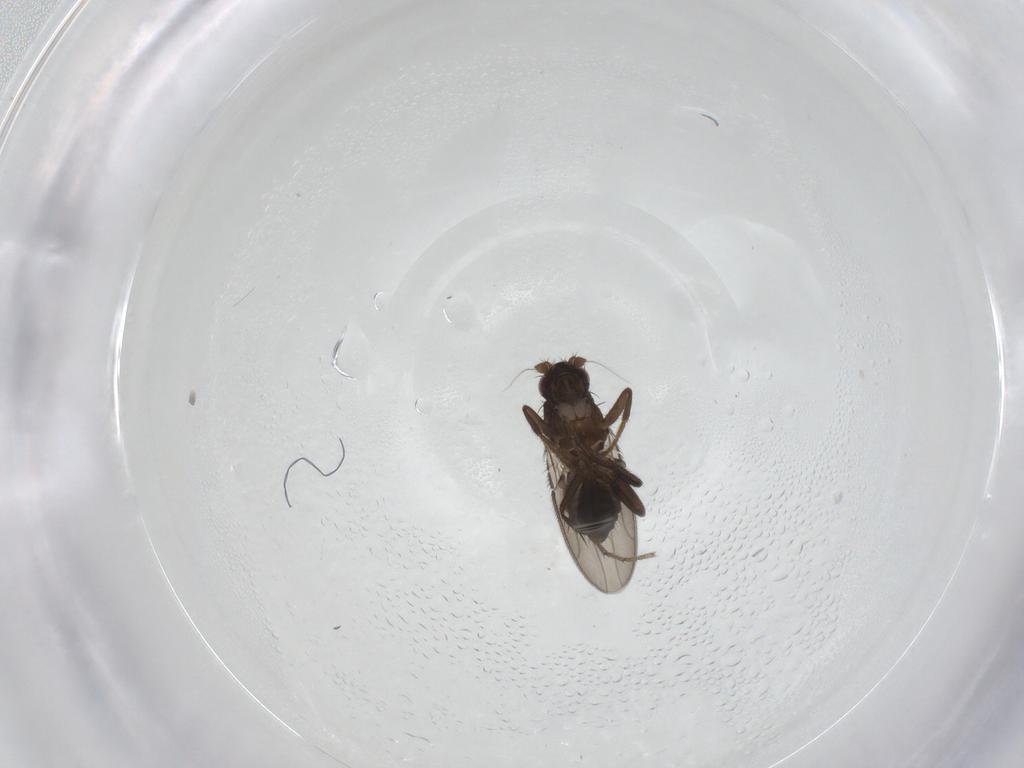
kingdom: Animalia
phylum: Arthropoda
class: Insecta
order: Diptera
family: Sphaeroceridae
